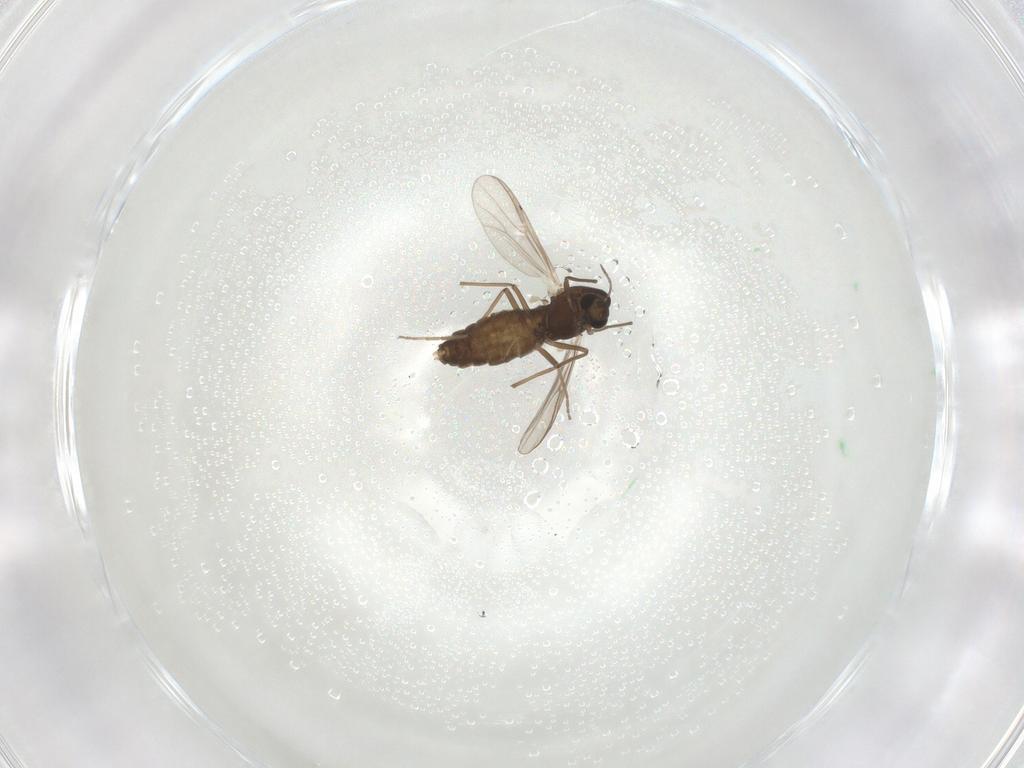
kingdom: Animalia
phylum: Arthropoda
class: Insecta
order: Diptera
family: Chironomidae
